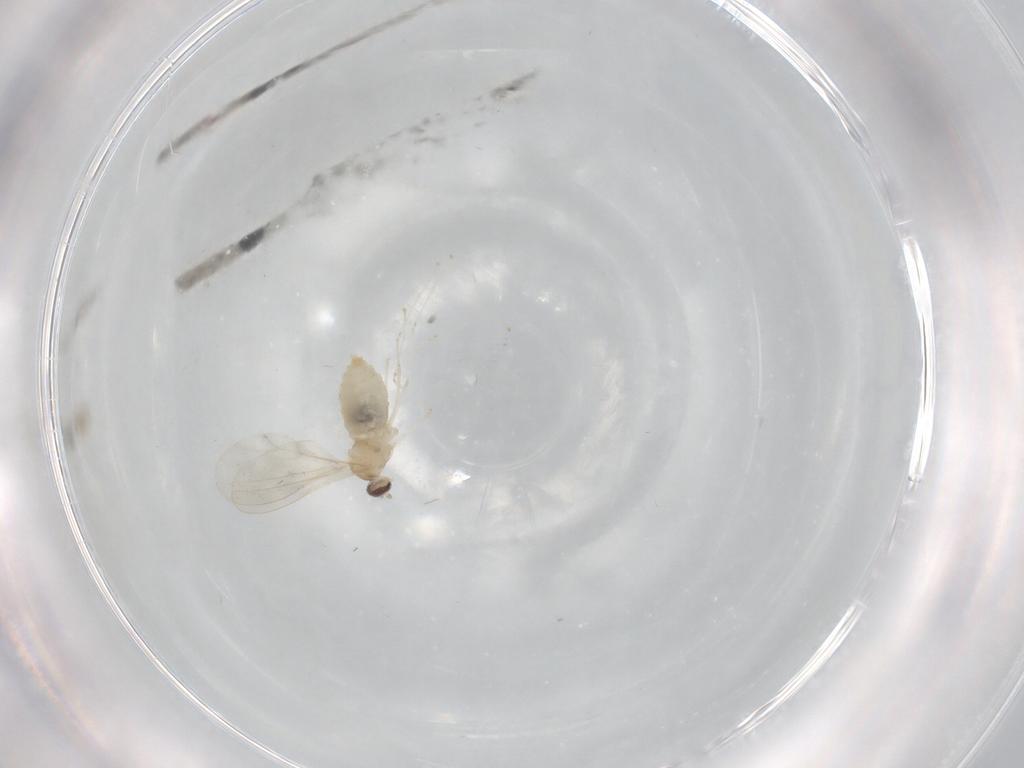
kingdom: Animalia
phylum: Arthropoda
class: Insecta
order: Diptera
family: Cecidomyiidae
